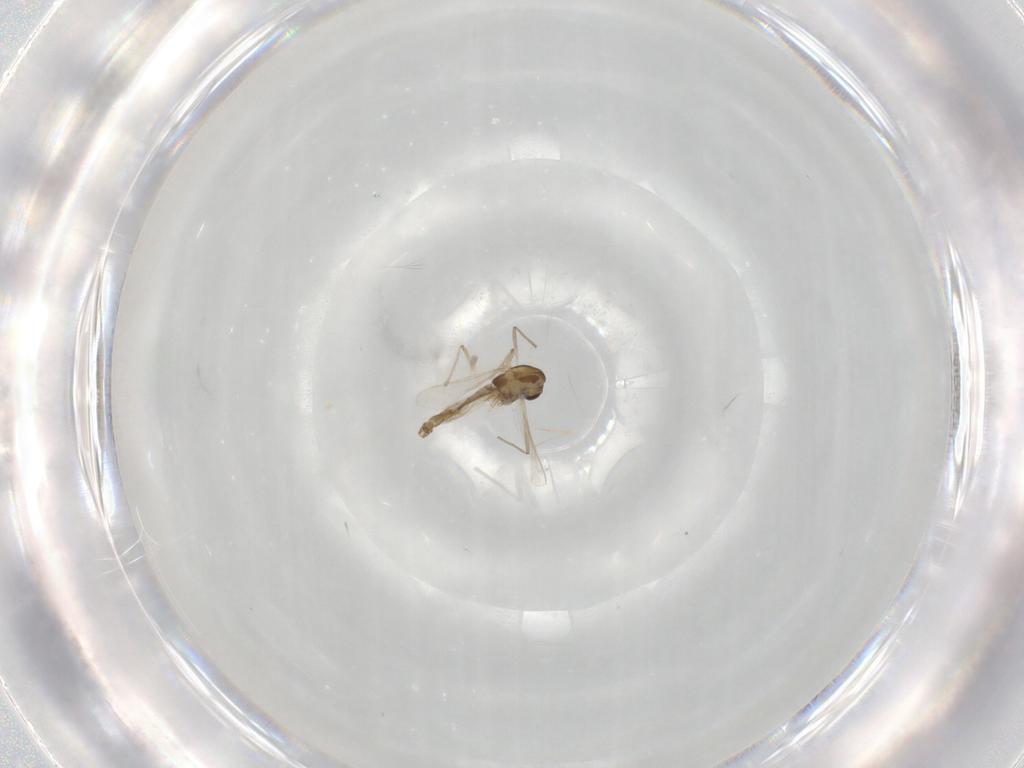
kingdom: Animalia
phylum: Arthropoda
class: Insecta
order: Diptera
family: Chironomidae
